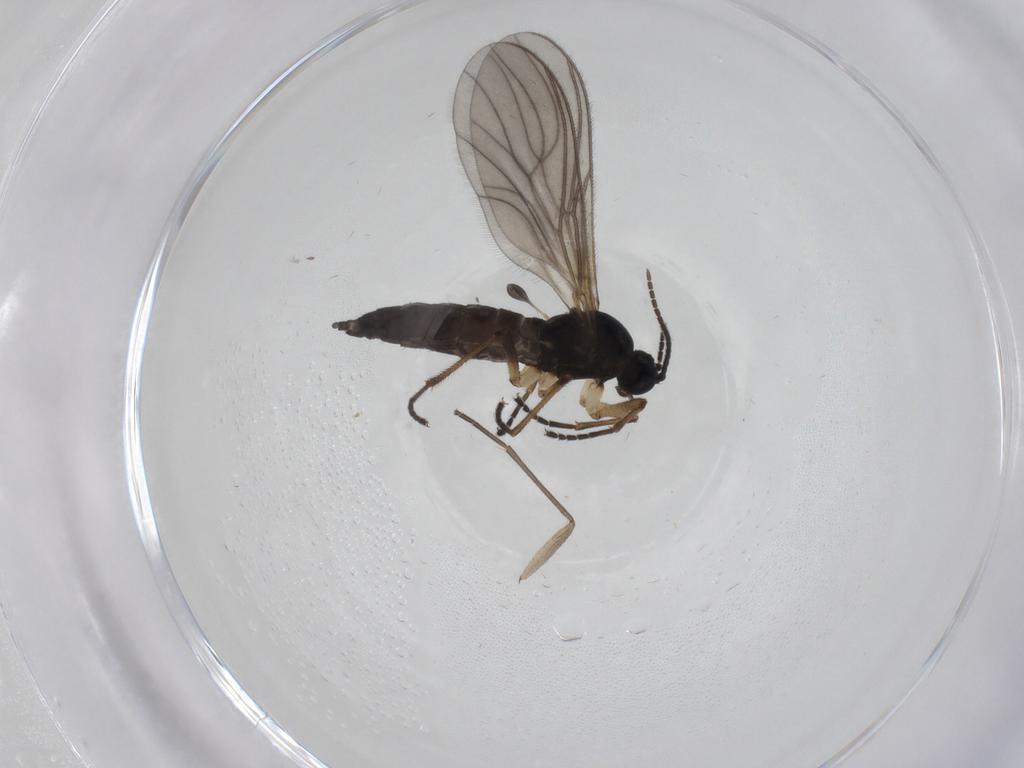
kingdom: Animalia
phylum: Arthropoda
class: Insecta
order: Diptera
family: Sciaridae
